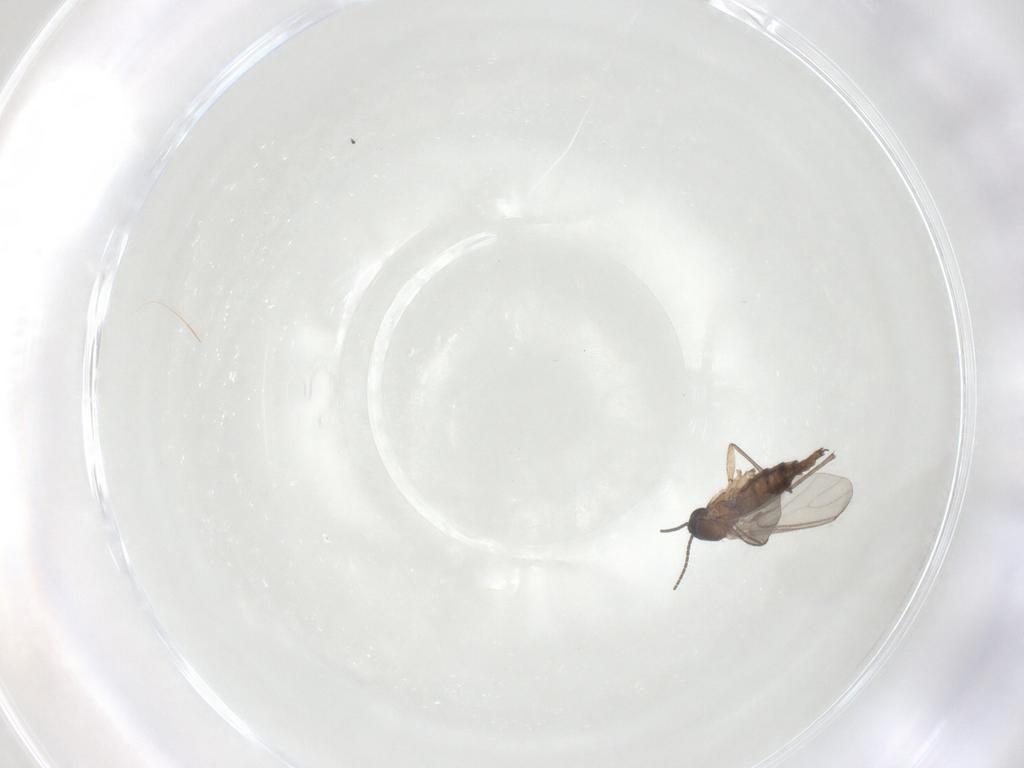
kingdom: Animalia
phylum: Arthropoda
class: Insecta
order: Diptera
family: Sciaridae
